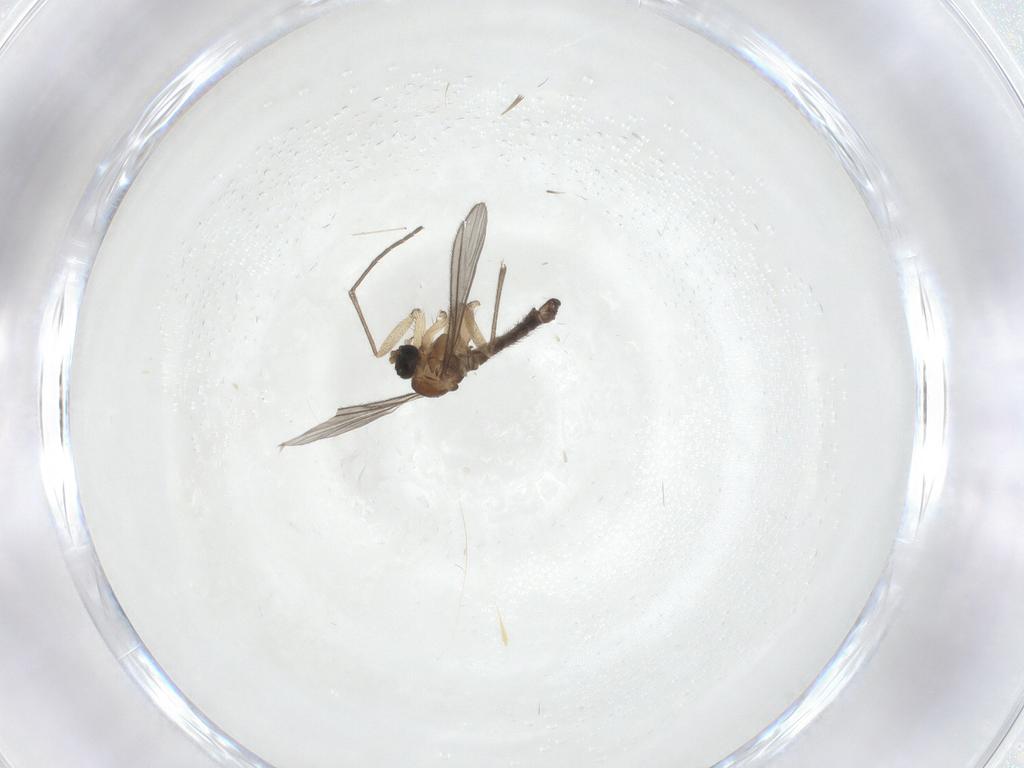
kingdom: Animalia
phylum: Arthropoda
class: Insecta
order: Diptera
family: Sciaridae
